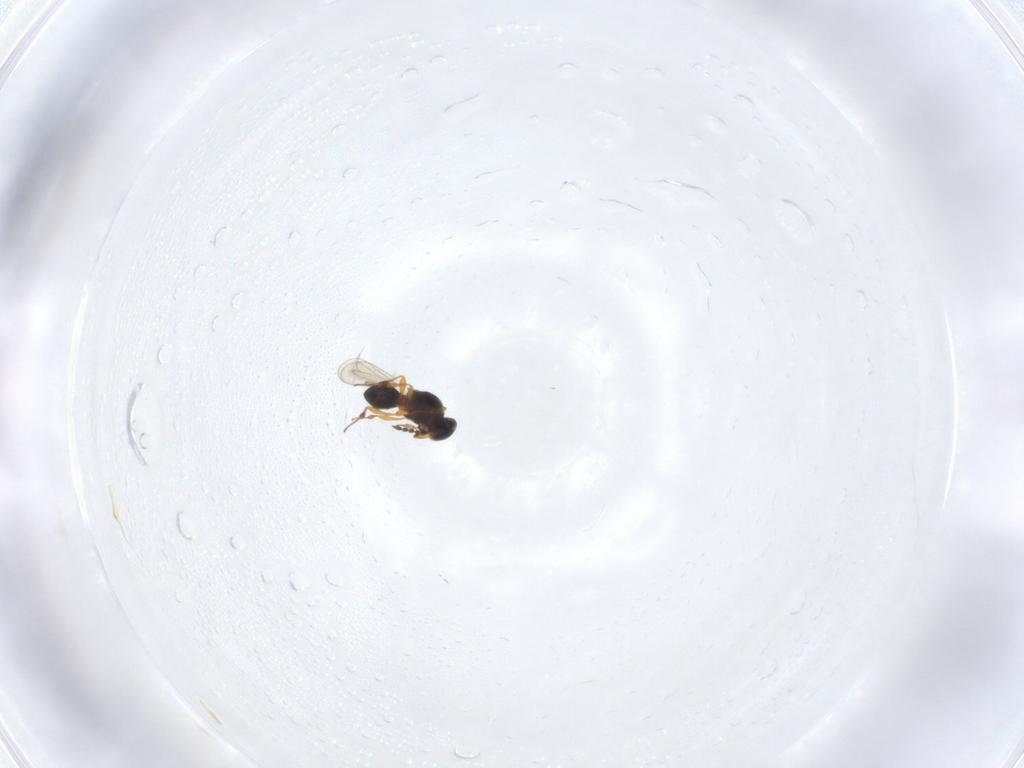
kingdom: Animalia
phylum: Arthropoda
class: Insecta
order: Hymenoptera
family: Platygastridae
